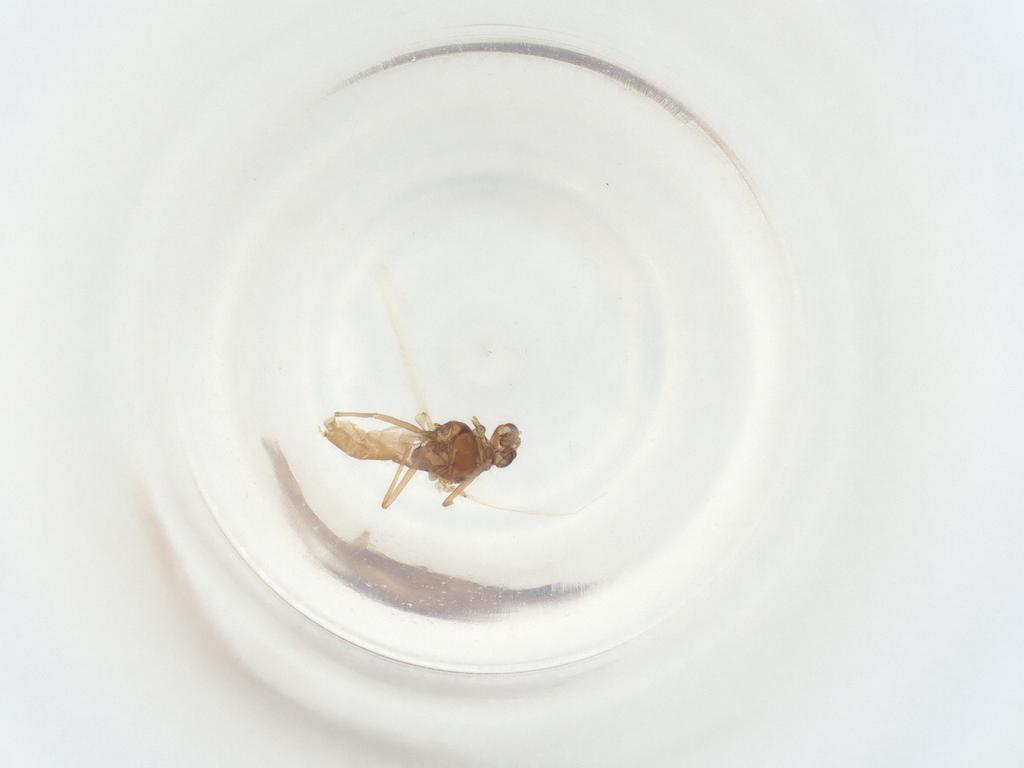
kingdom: Animalia
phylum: Arthropoda
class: Insecta
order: Diptera
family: Chironomidae
